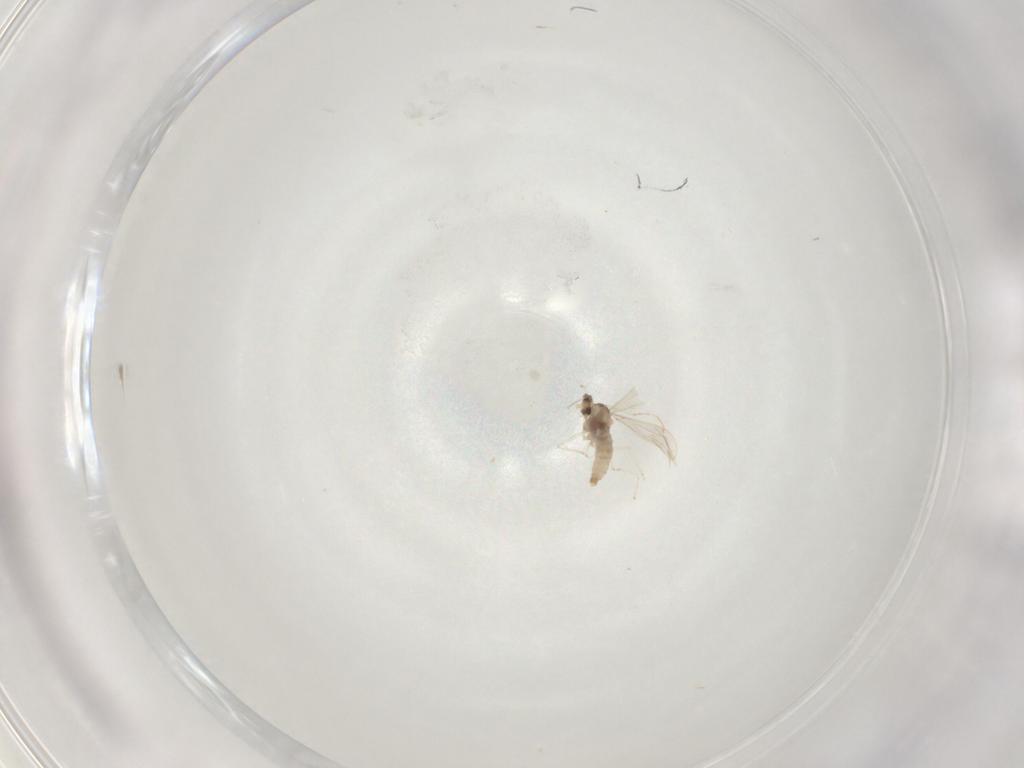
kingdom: Animalia
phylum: Arthropoda
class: Insecta
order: Diptera
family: Cecidomyiidae
